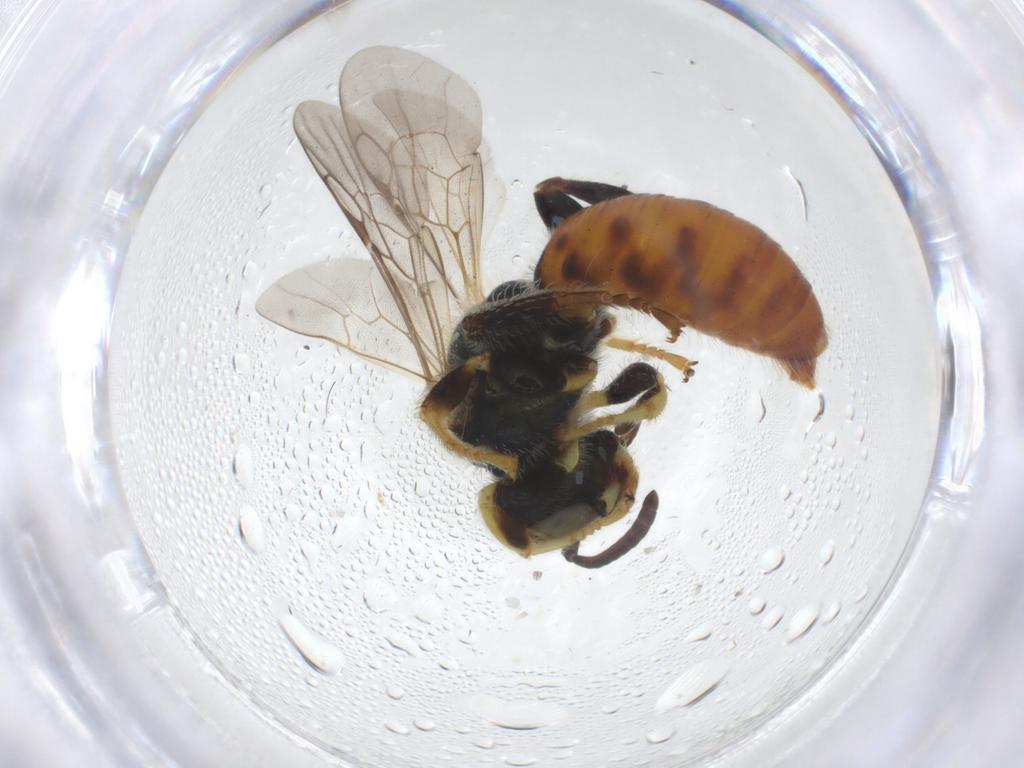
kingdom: Animalia
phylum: Arthropoda
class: Insecta
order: Hymenoptera
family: Andrenidae
